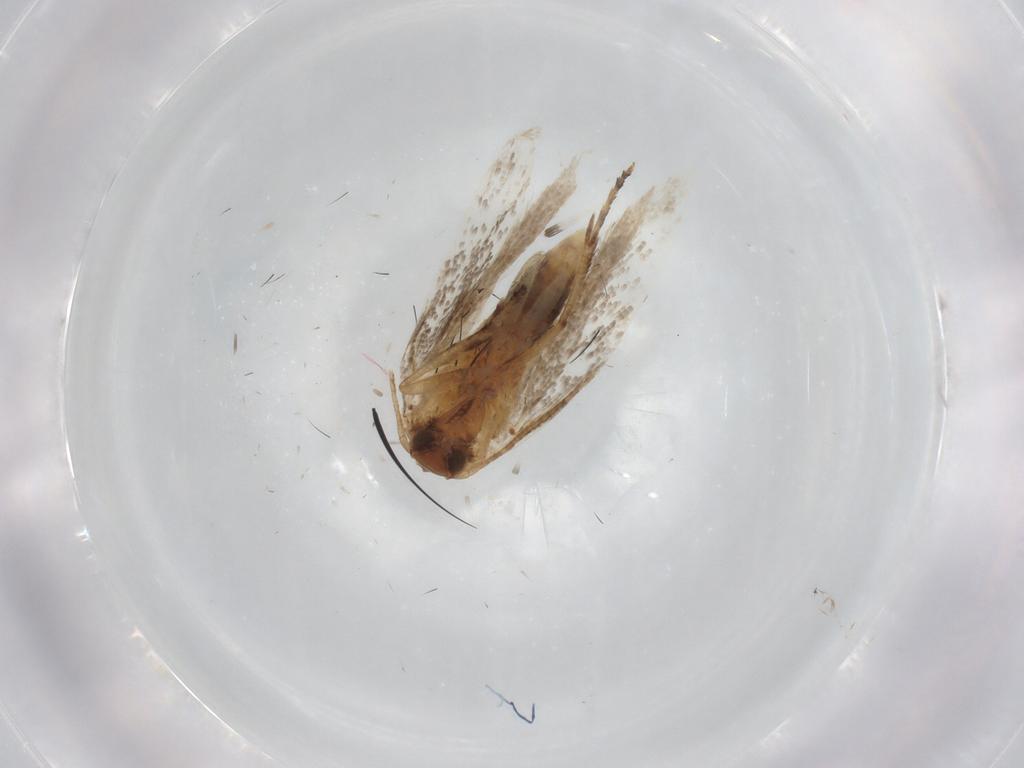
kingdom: Animalia
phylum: Arthropoda
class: Insecta
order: Lepidoptera
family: Gelechiidae
